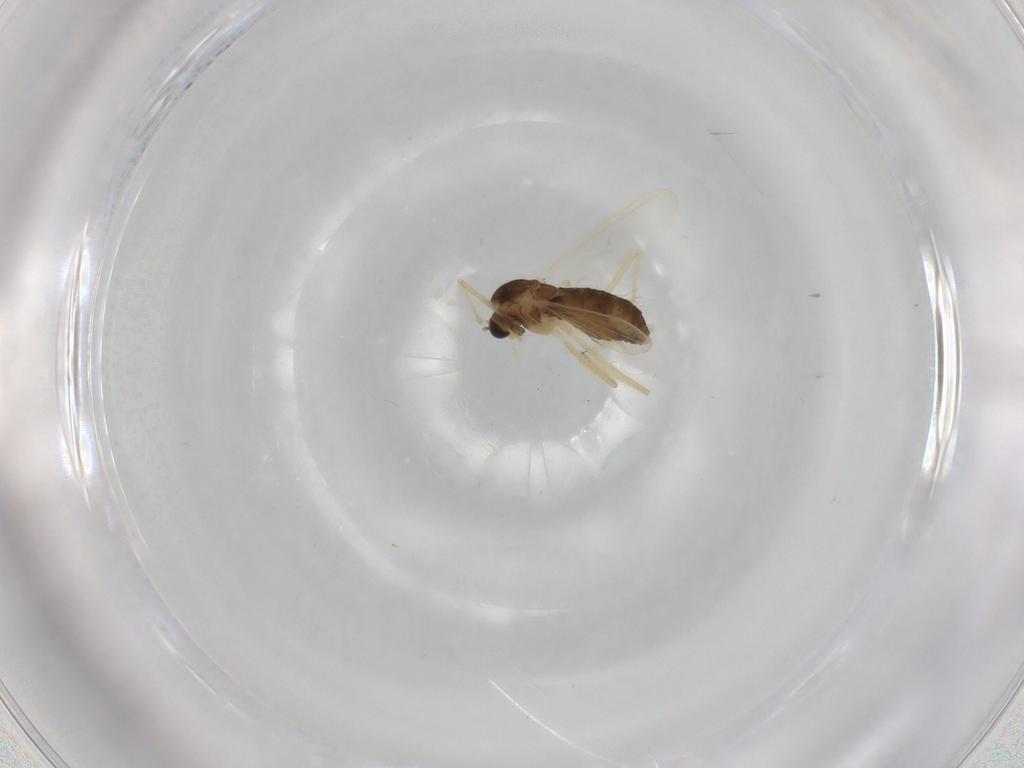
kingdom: Animalia
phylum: Arthropoda
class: Insecta
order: Diptera
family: Chironomidae
